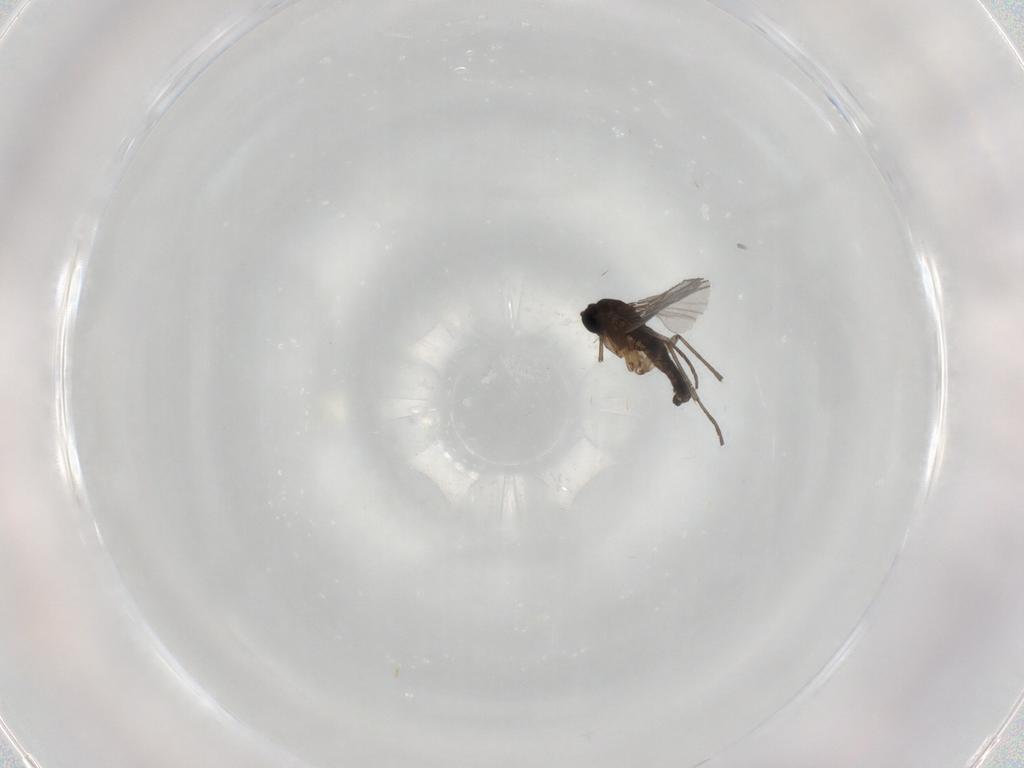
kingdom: Animalia
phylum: Arthropoda
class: Insecta
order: Diptera
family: Sciaridae
